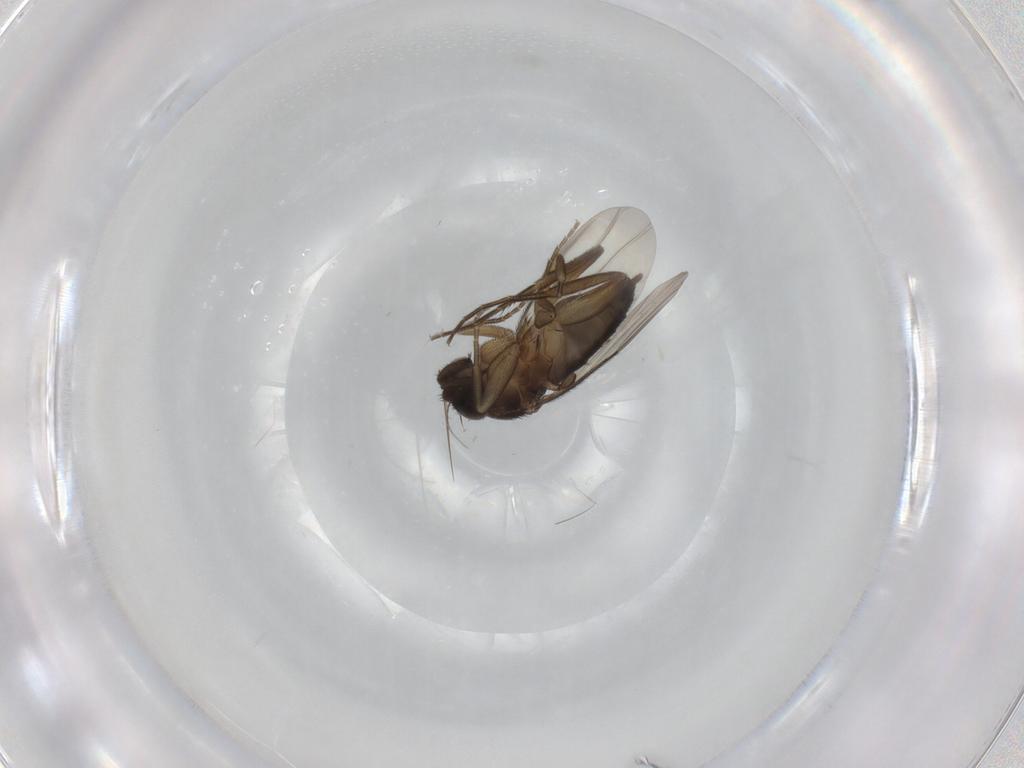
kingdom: Animalia
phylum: Arthropoda
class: Insecta
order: Diptera
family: Phoridae
